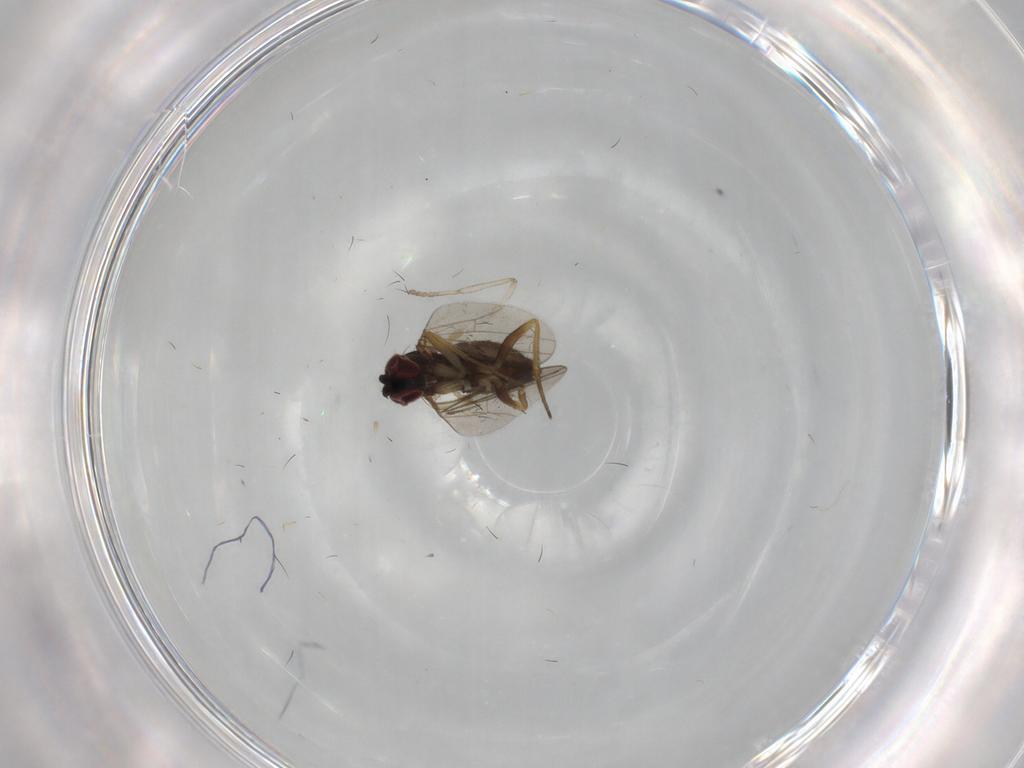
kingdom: Animalia
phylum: Arthropoda
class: Insecta
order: Diptera
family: Dolichopodidae
